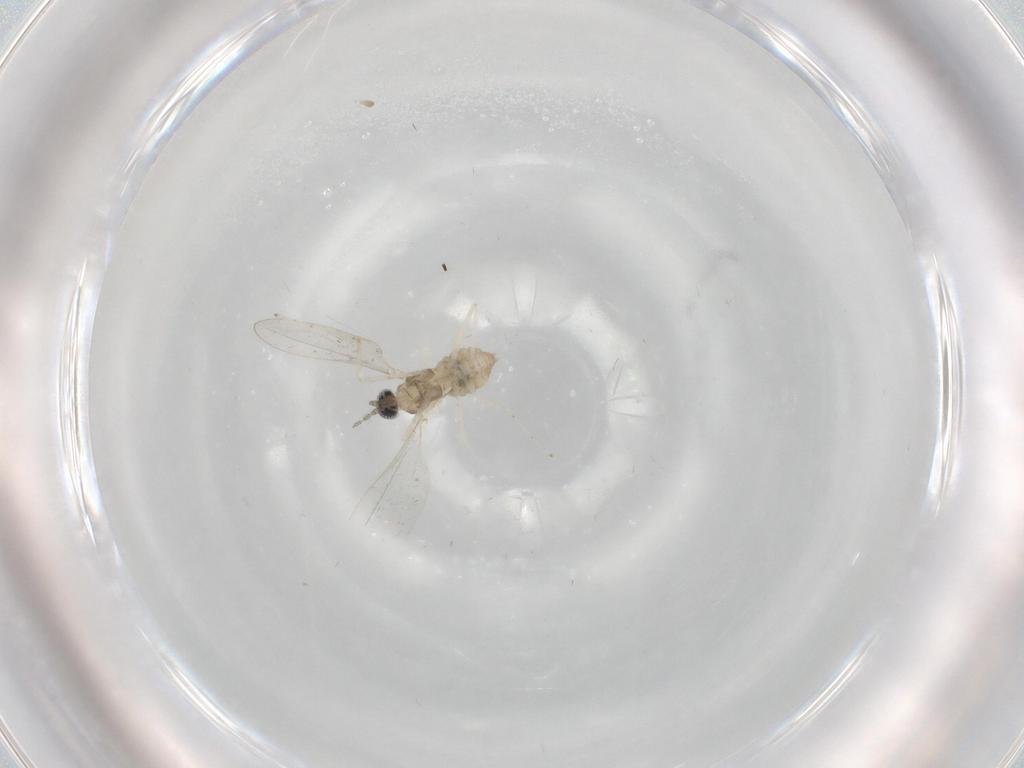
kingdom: Animalia
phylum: Arthropoda
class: Insecta
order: Diptera
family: Cecidomyiidae
